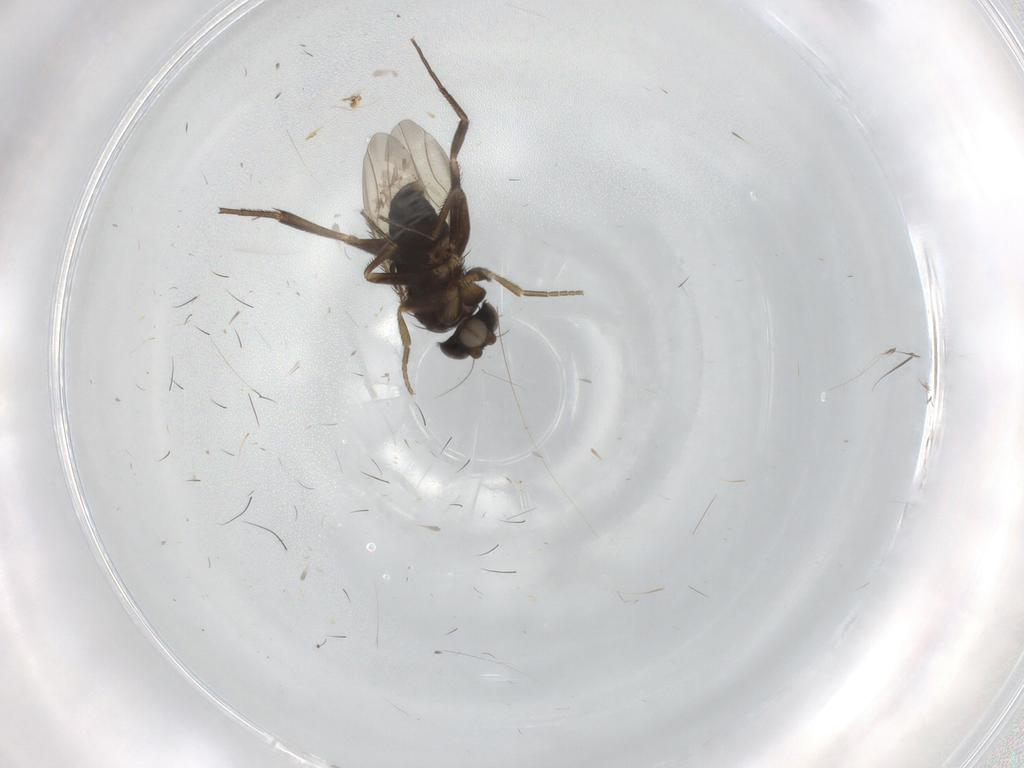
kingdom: Animalia
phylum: Arthropoda
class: Insecta
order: Diptera
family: Phoridae
